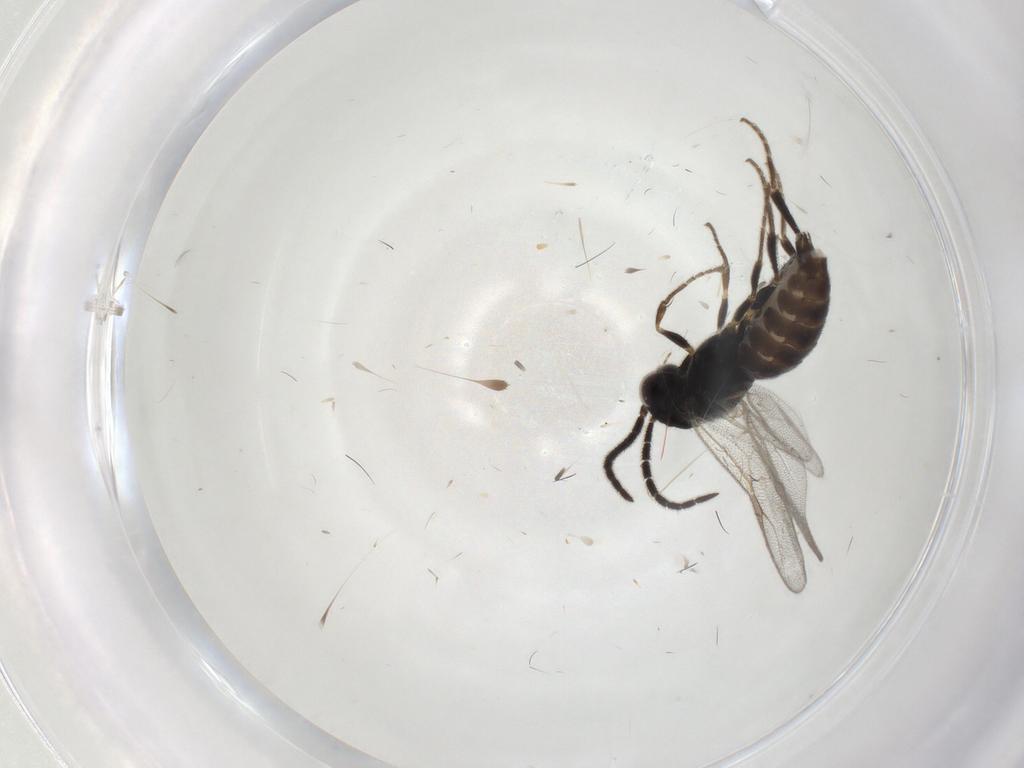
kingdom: Animalia
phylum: Arthropoda
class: Insecta
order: Hymenoptera
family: Dryinidae
